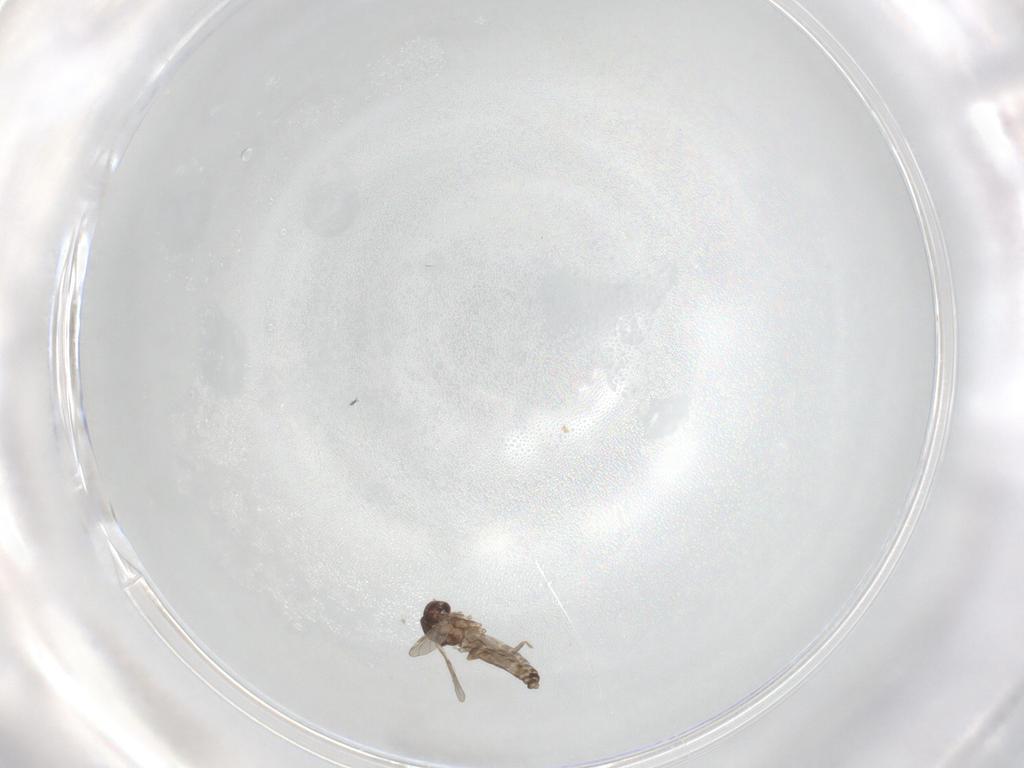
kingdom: Animalia
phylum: Arthropoda
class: Insecta
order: Diptera
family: Ceratopogonidae
